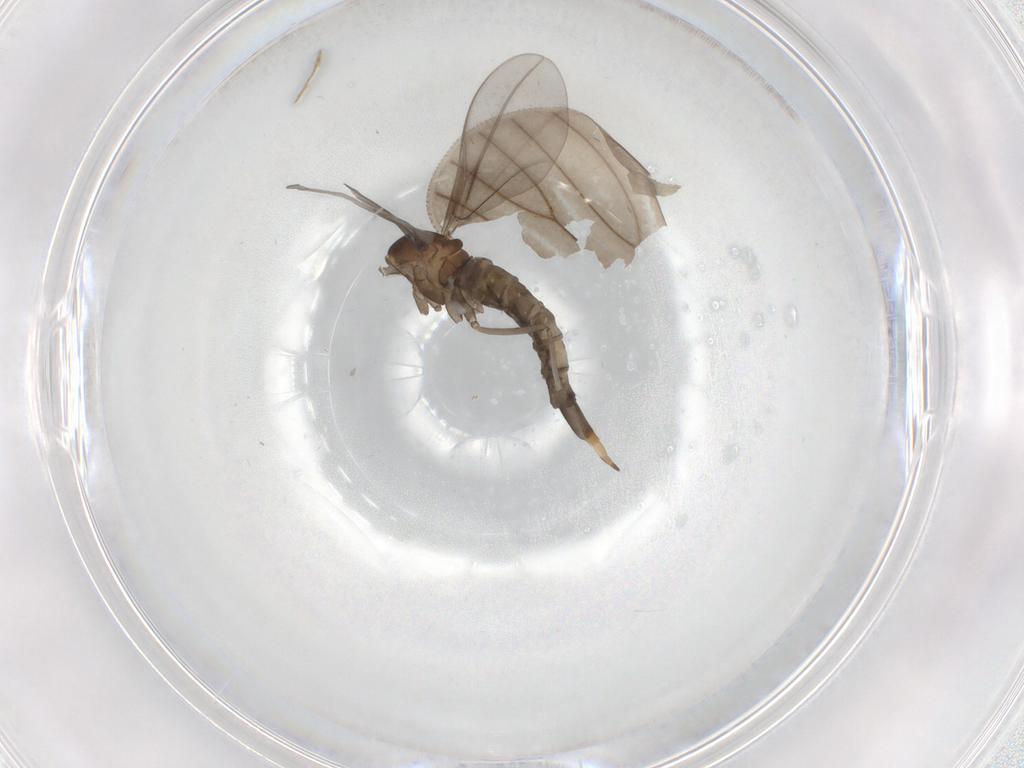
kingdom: Animalia
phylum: Arthropoda
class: Insecta
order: Diptera
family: Cecidomyiidae
